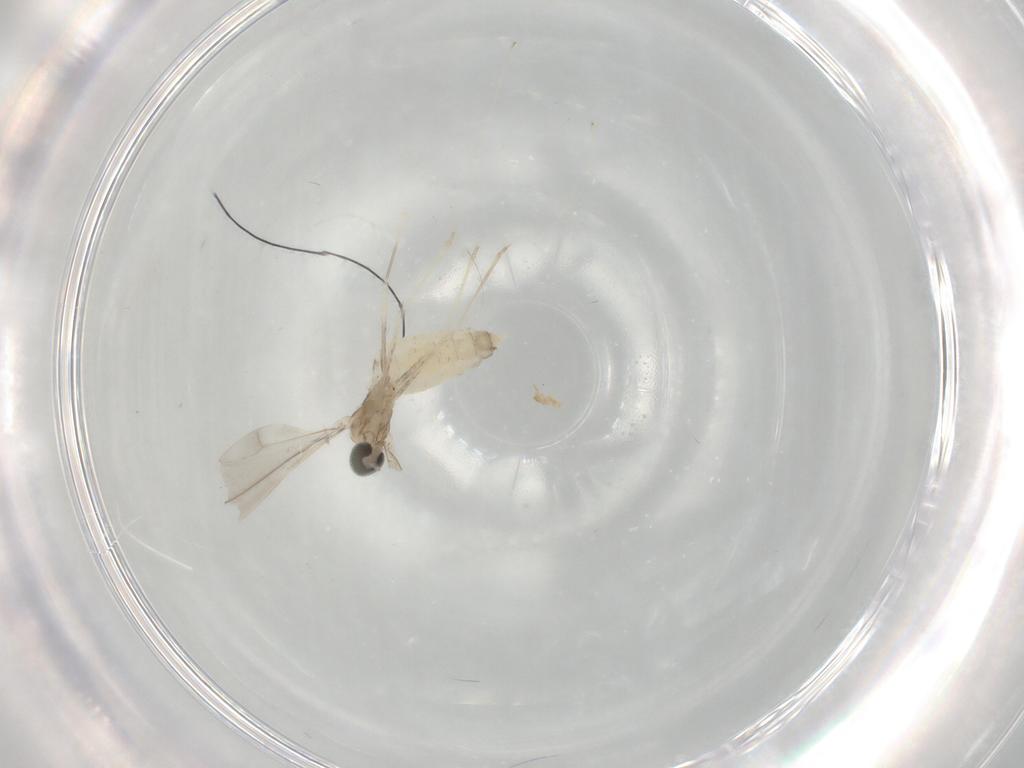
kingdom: Animalia
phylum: Arthropoda
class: Insecta
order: Diptera
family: Cecidomyiidae
